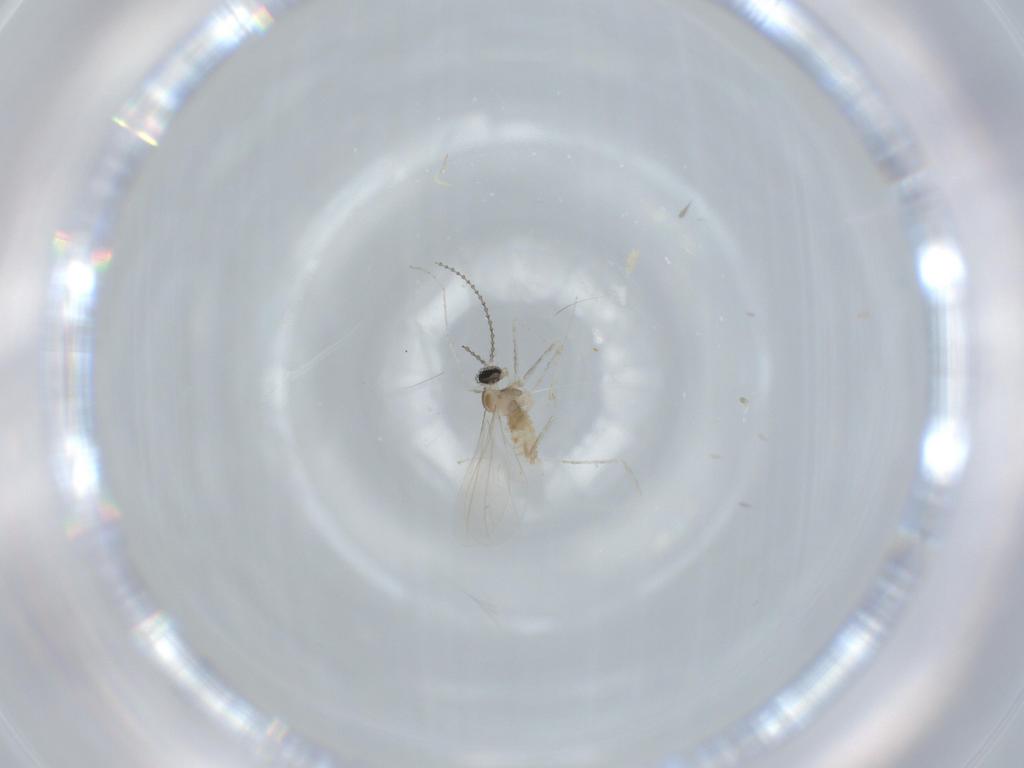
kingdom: Animalia
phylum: Arthropoda
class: Insecta
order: Diptera
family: Cecidomyiidae
